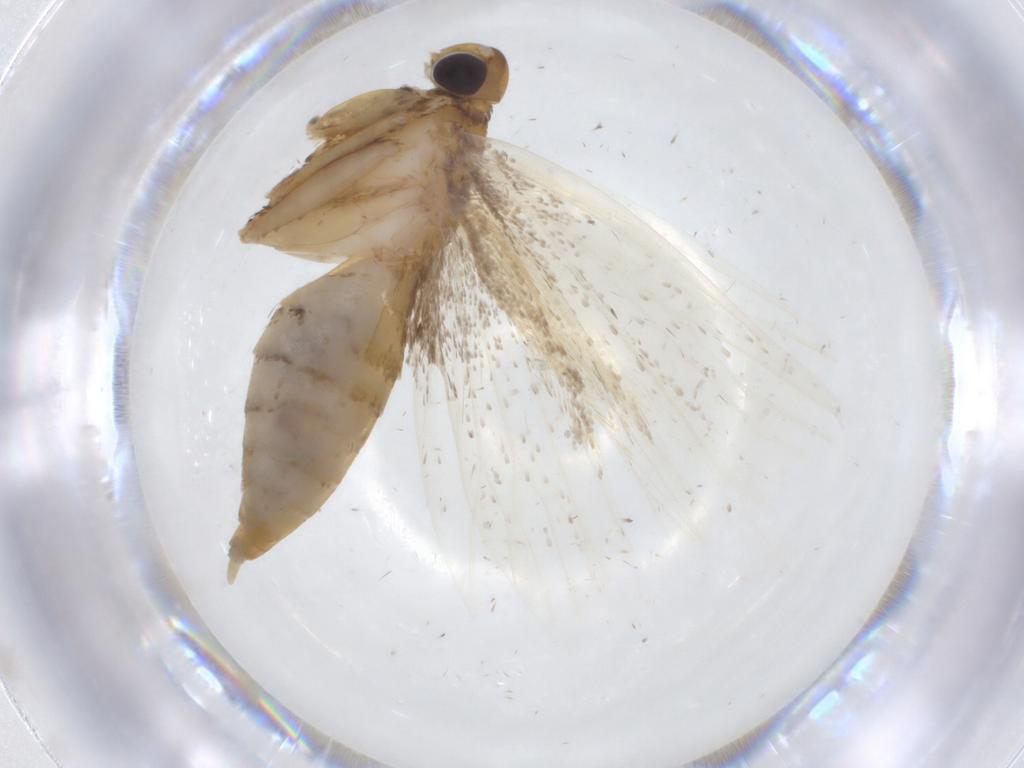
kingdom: Animalia
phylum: Arthropoda
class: Insecta
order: Lepidoptera
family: Lecithoceridae
